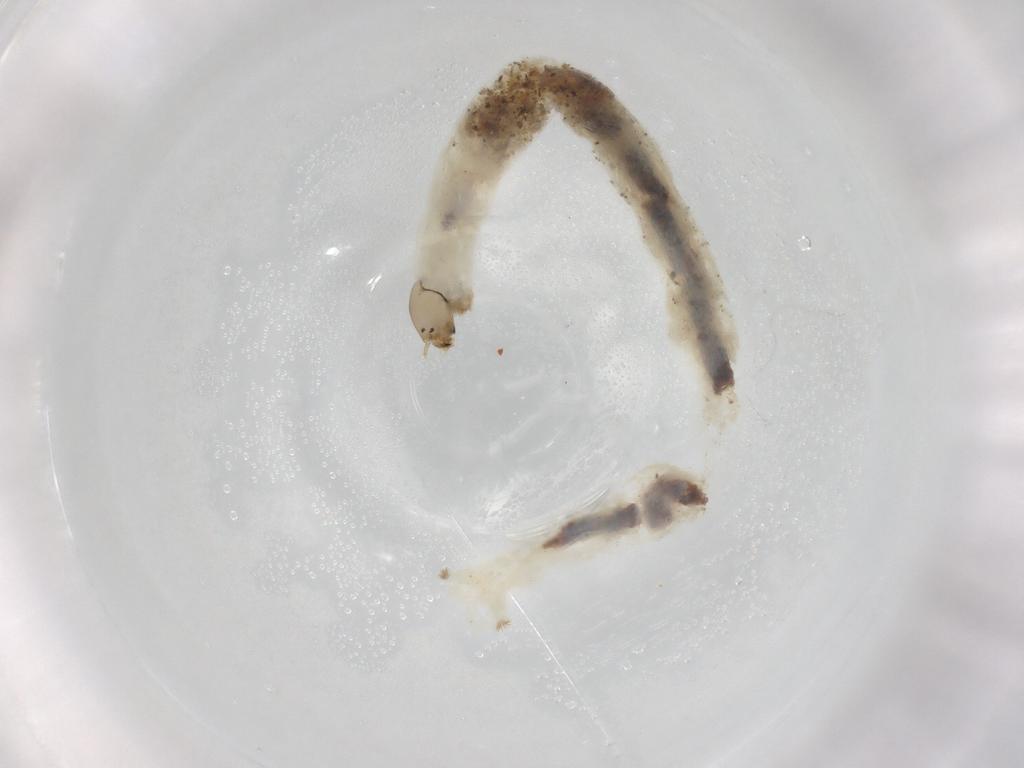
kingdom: Animalia
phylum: Arthropoda
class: Insecta
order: Diptera
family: Chironomidae
